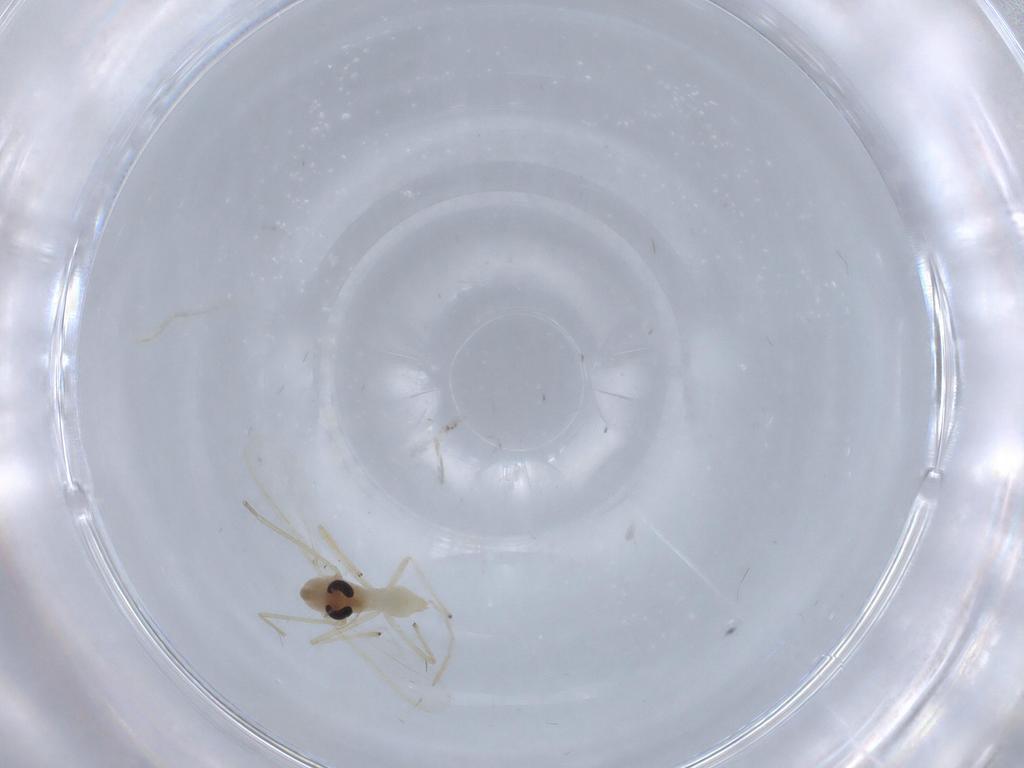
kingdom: Animalia
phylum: Arthropoda
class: Insecta
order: Diptera
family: Chironomidae
